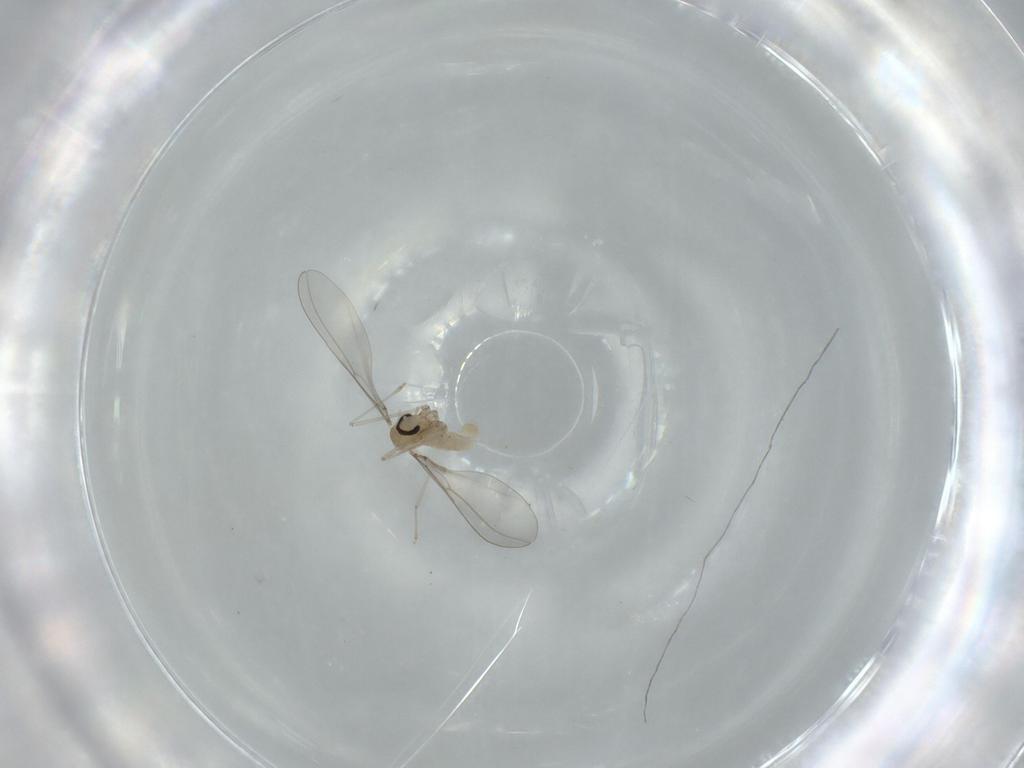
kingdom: Animalia
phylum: Arthropoda
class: Insecta
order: Diptera
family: Cecidomyiidae
